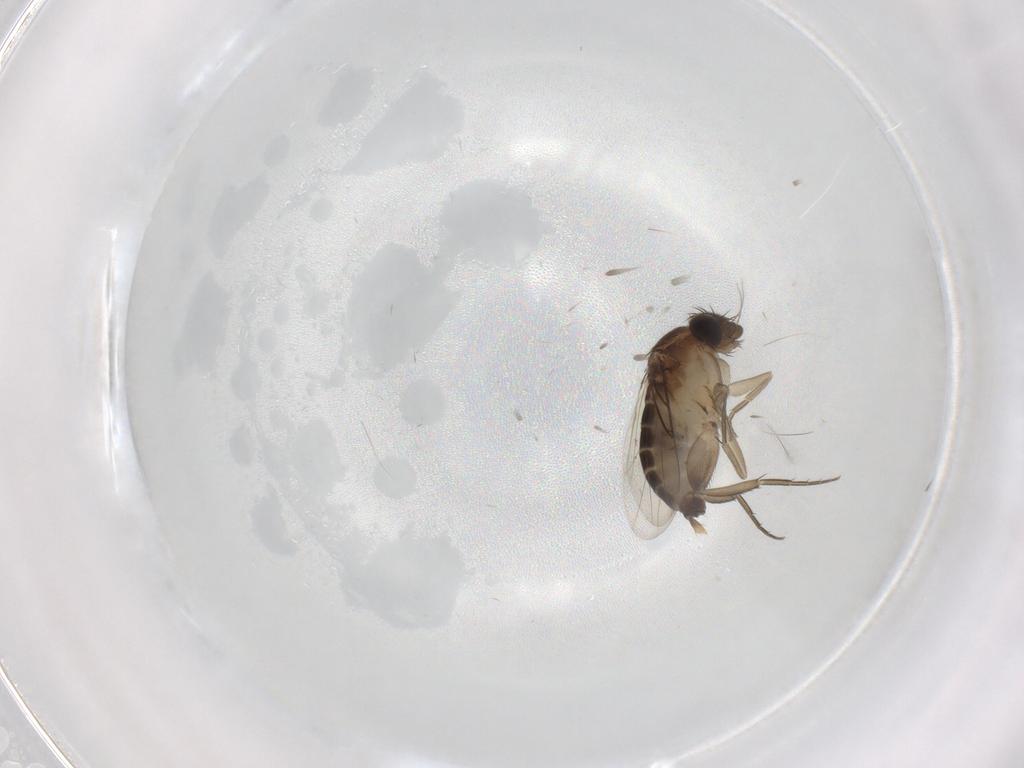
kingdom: Animalia
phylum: Arthropoda
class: Insecta
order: Diptera
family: Phoridae
